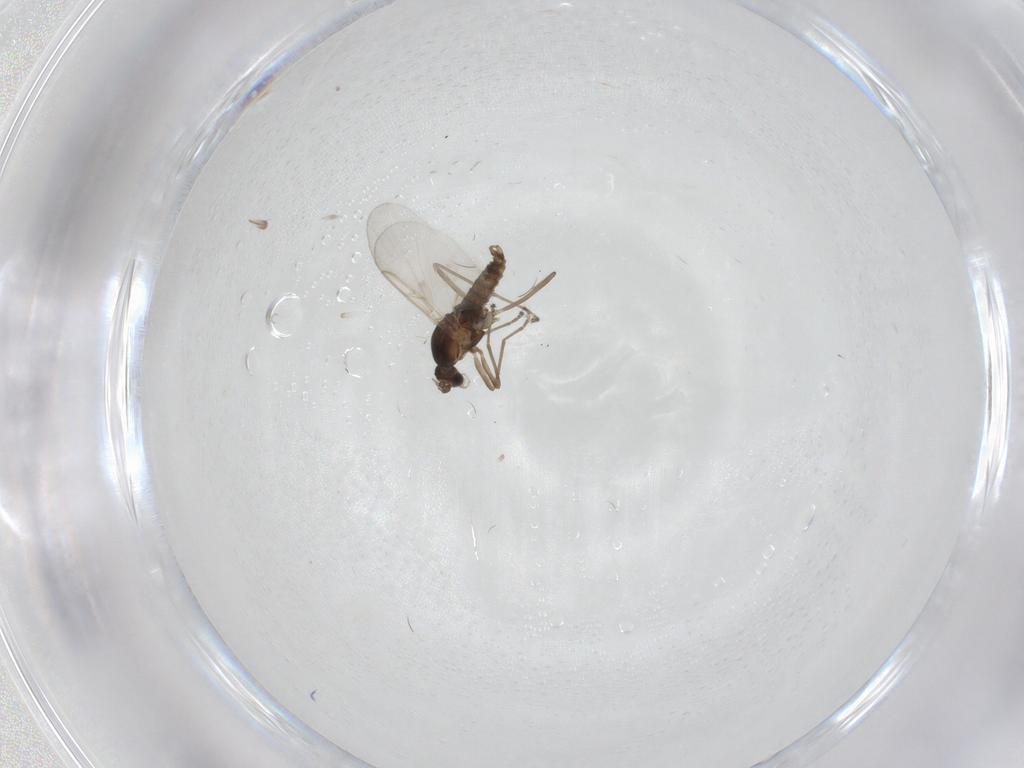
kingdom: Animalia
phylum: Arthropoda
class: Insecta
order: Diptera
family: Cecidomyiidae
